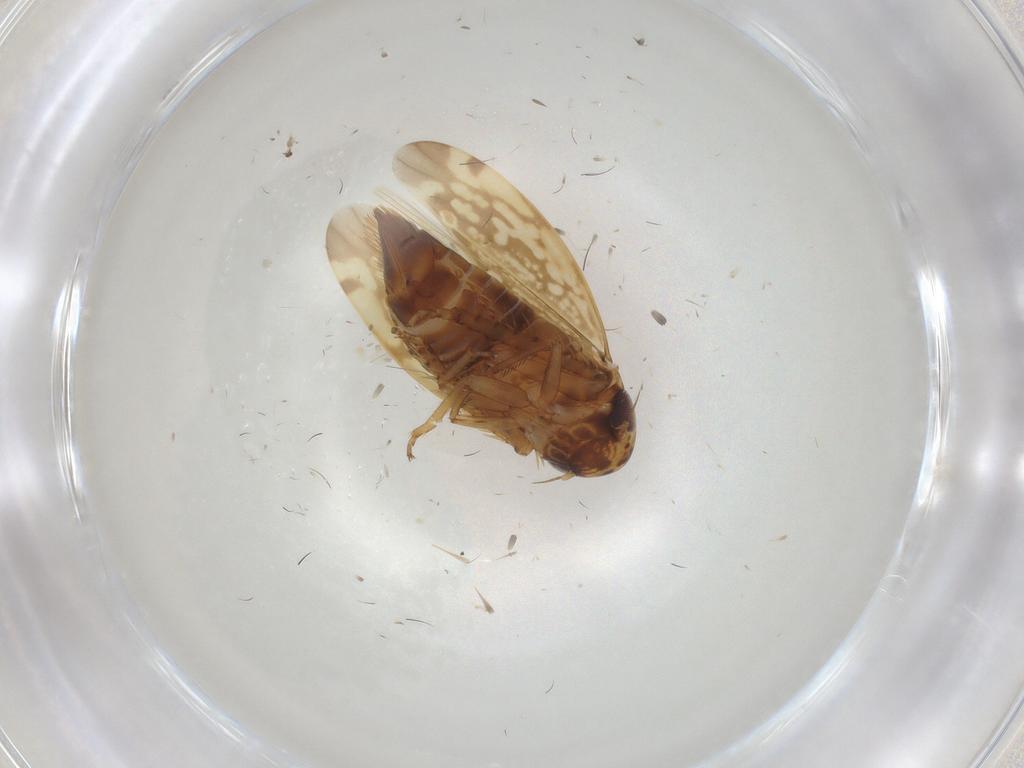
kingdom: Animalia
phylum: Arthropoda
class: Insecta
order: Hemiptera
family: Cicadellidae
